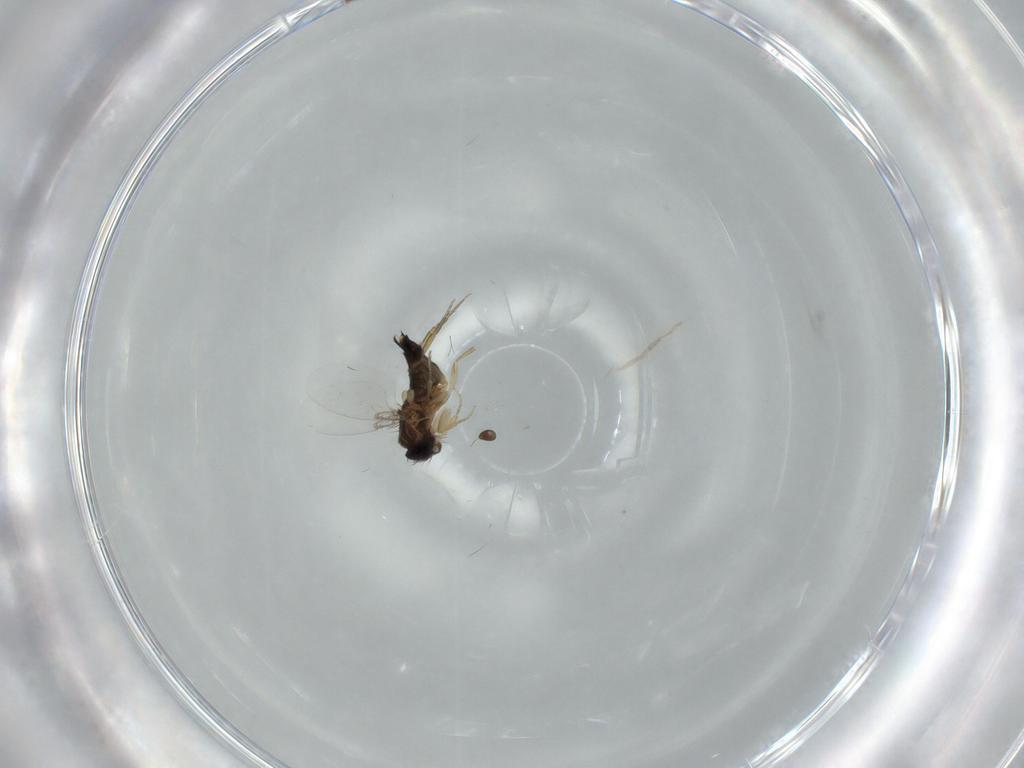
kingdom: Animalia
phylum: Arthropoda
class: Insecta
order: Diptera
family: Phoridae
